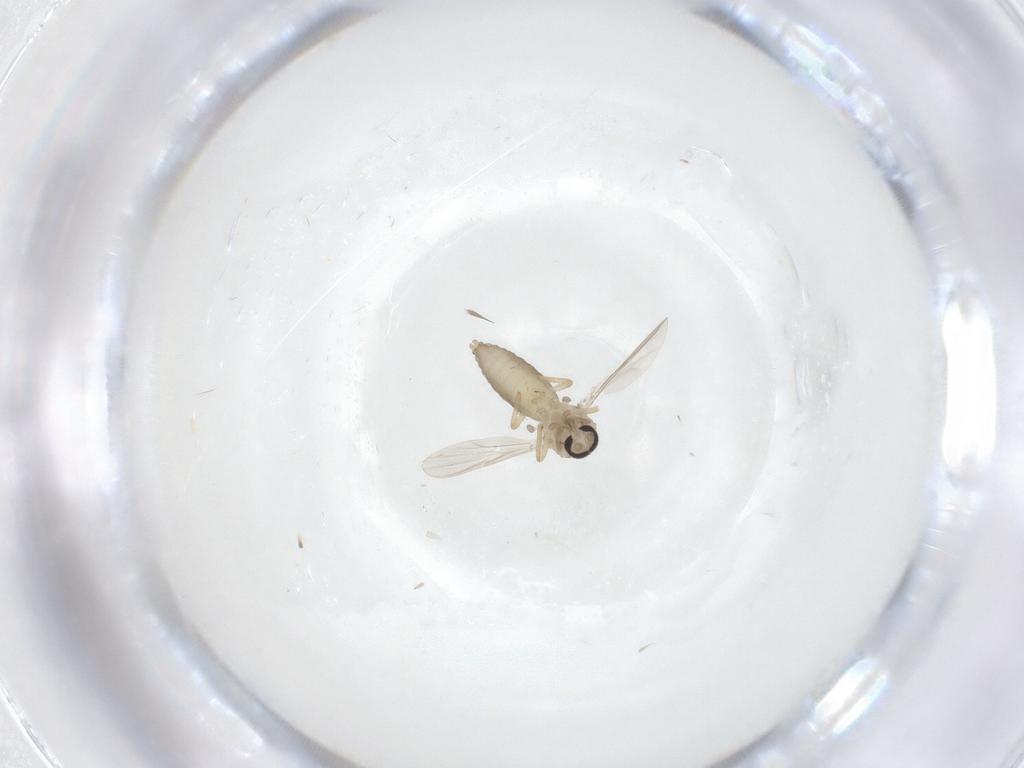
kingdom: Animalia
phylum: Arthropoda
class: Insecta
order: Diptera
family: Ceratopogonidae
